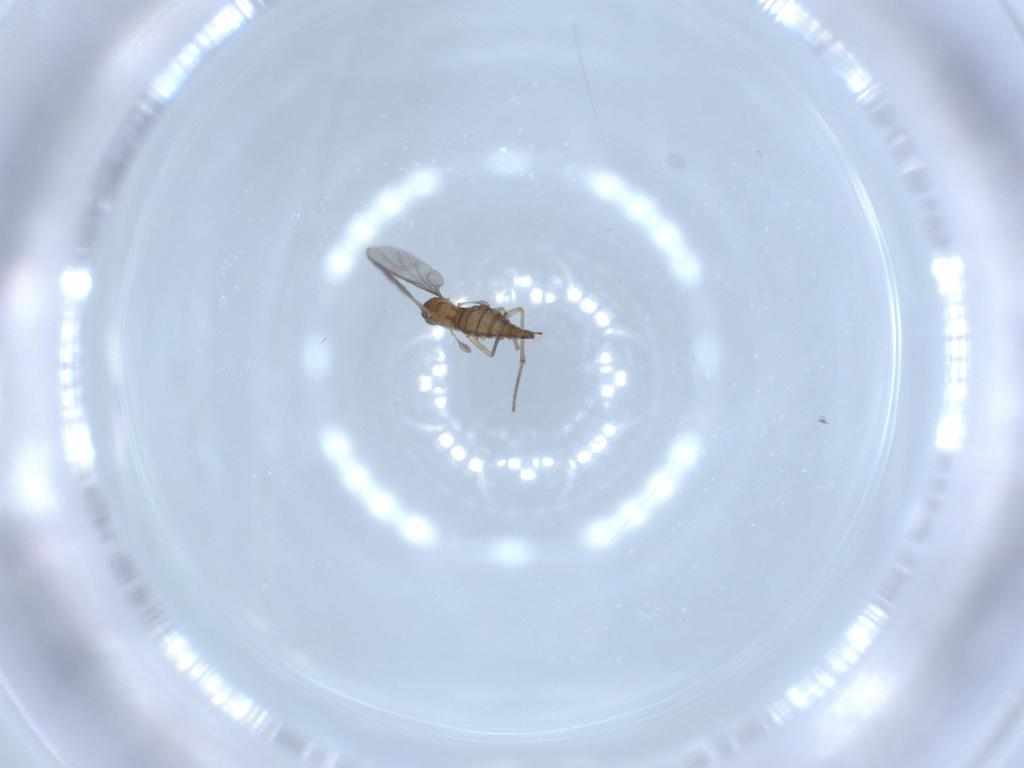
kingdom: Animalia
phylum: Arthropoda
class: Insecta
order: Diptera
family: Sciaridae
